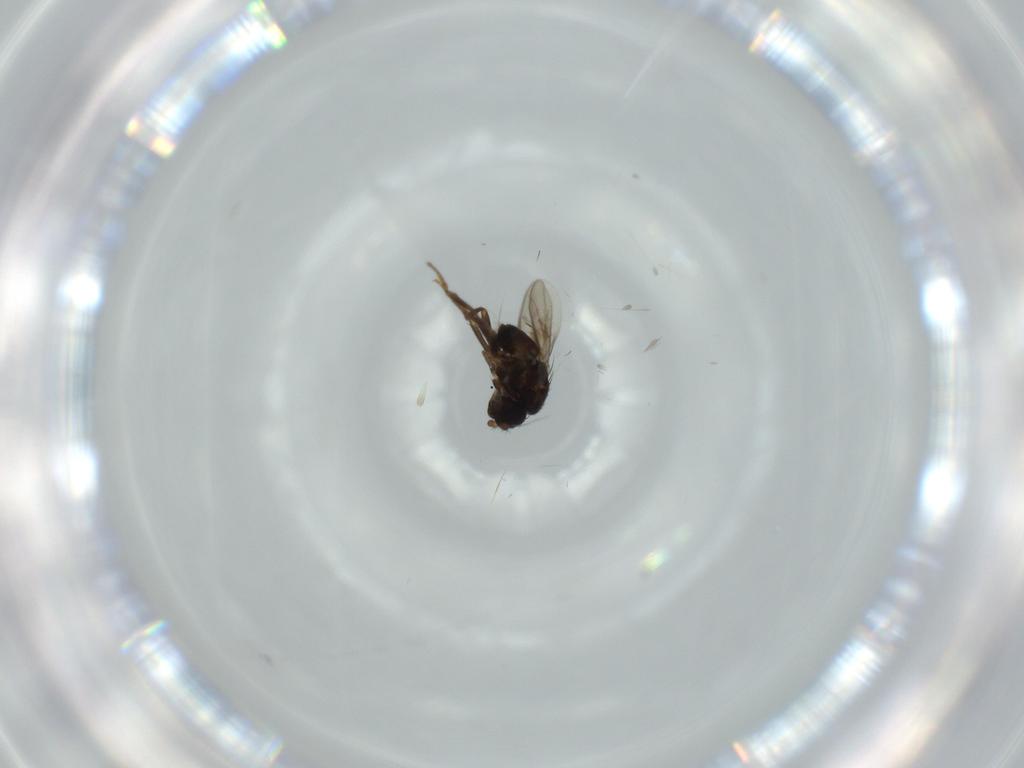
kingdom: Animalia
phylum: Arthropoda
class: Insecta
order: Diptera
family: Sphaeroceridae
